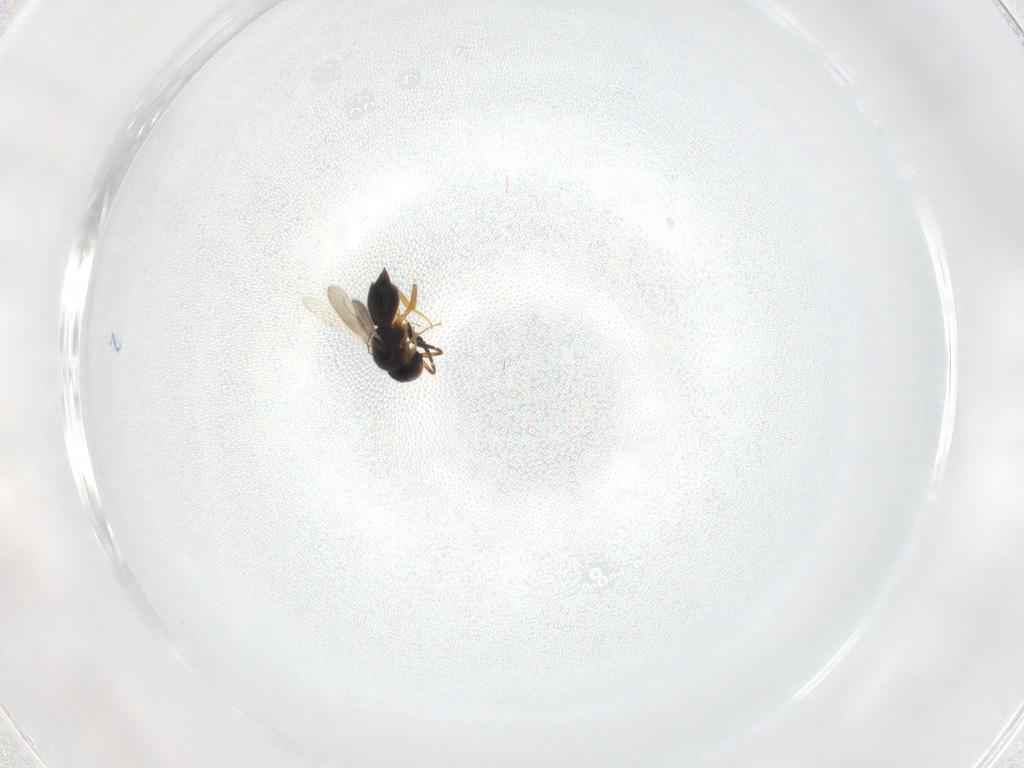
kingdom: Animalia
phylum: Arthropoda
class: Insecta
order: Hymenoptera
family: Ceraphronidae
